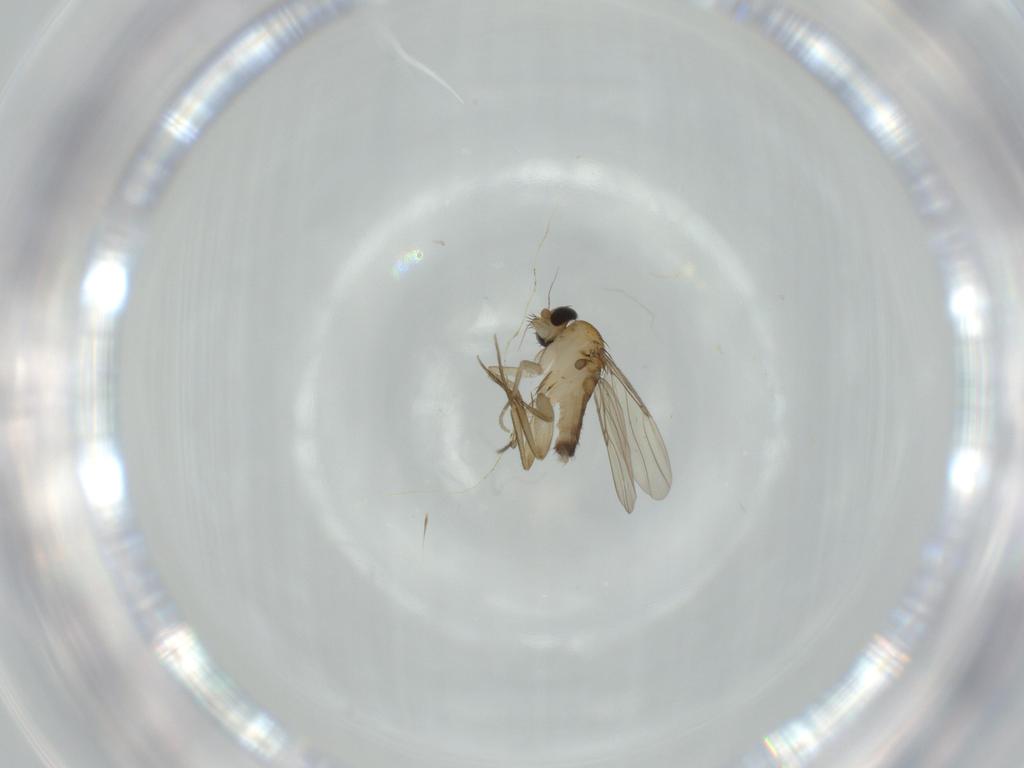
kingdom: Animalia
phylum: Arthropoda
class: Insecta
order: Diptera
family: Phoridae
